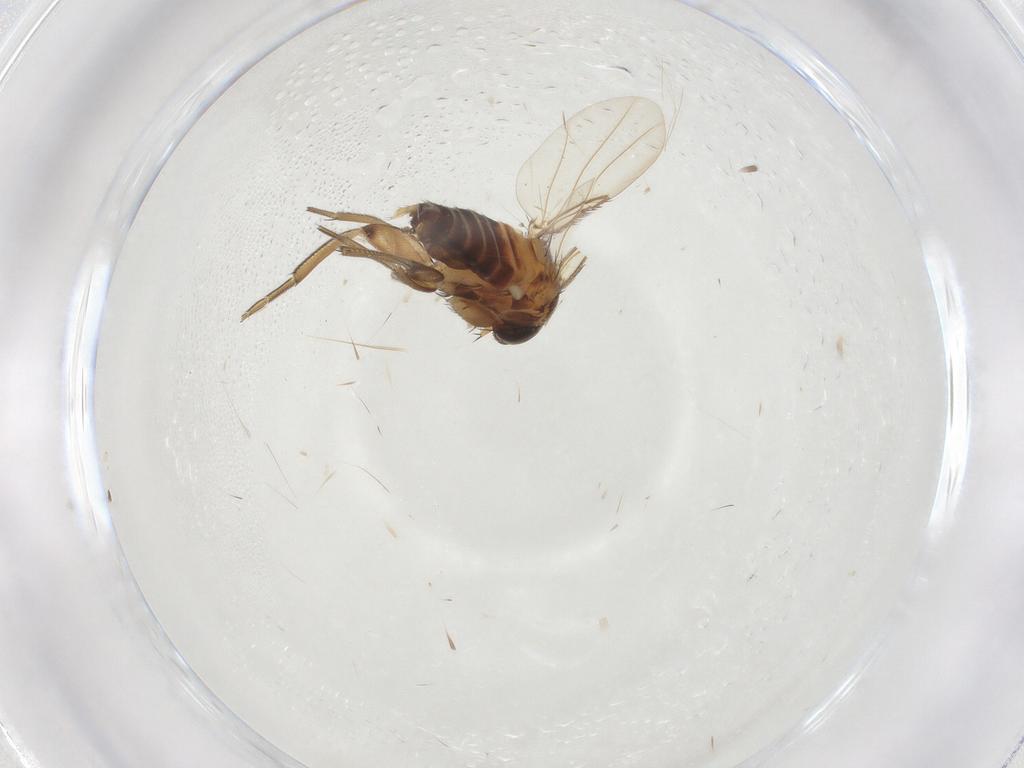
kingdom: Animalia
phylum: Arthropoda
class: Insecta
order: Diptera
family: Phoridae
